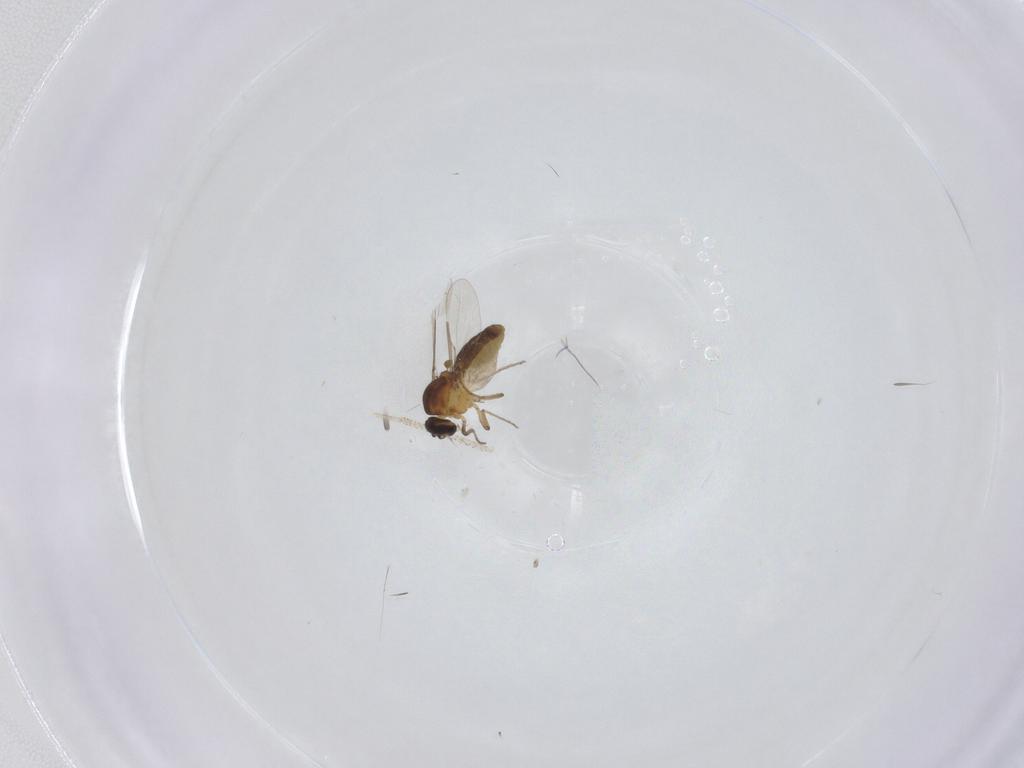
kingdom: Animalia
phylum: Arthropoda
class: Insecta
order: Diptera
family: Ceratopogonidae
